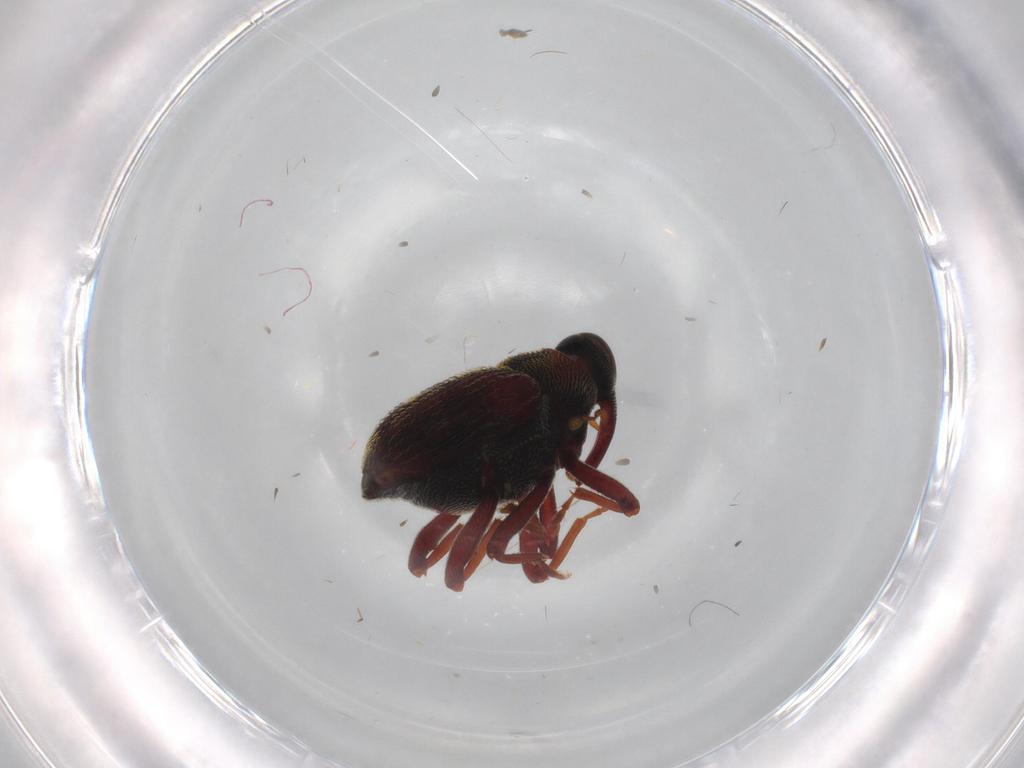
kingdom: Animalia
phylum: Arthropoda
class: Insecta
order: Coleoptera
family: Curculionidae
